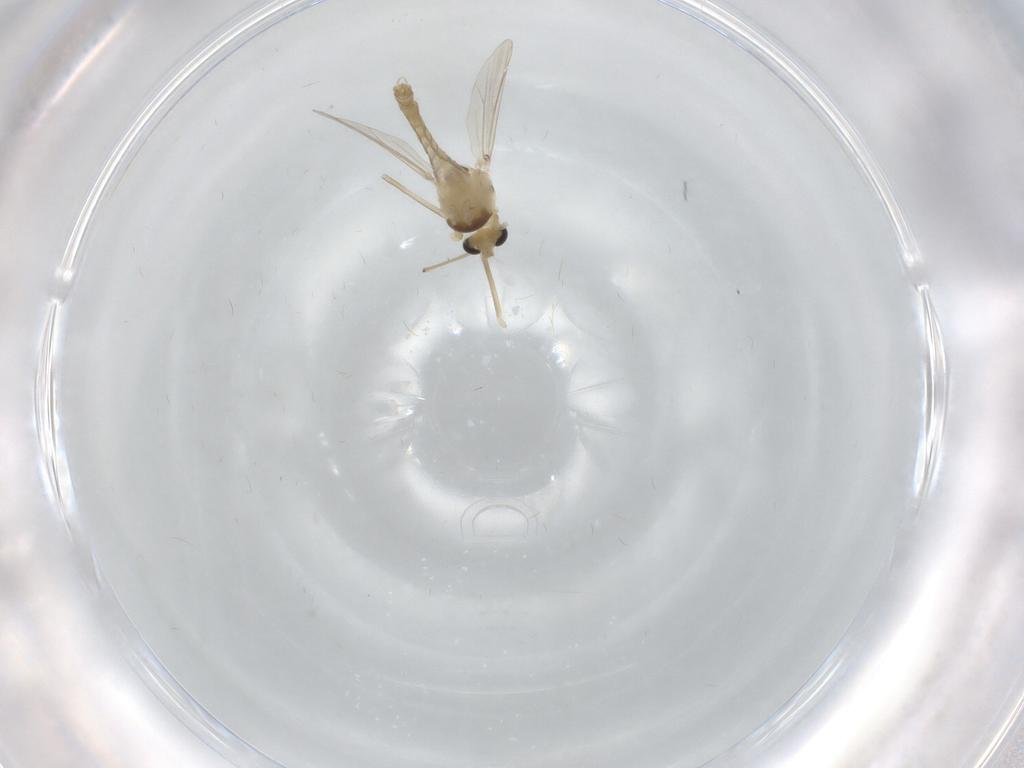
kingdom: Animalia
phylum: Arthropoda
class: Insecta
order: Diptera
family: Chironomidae
